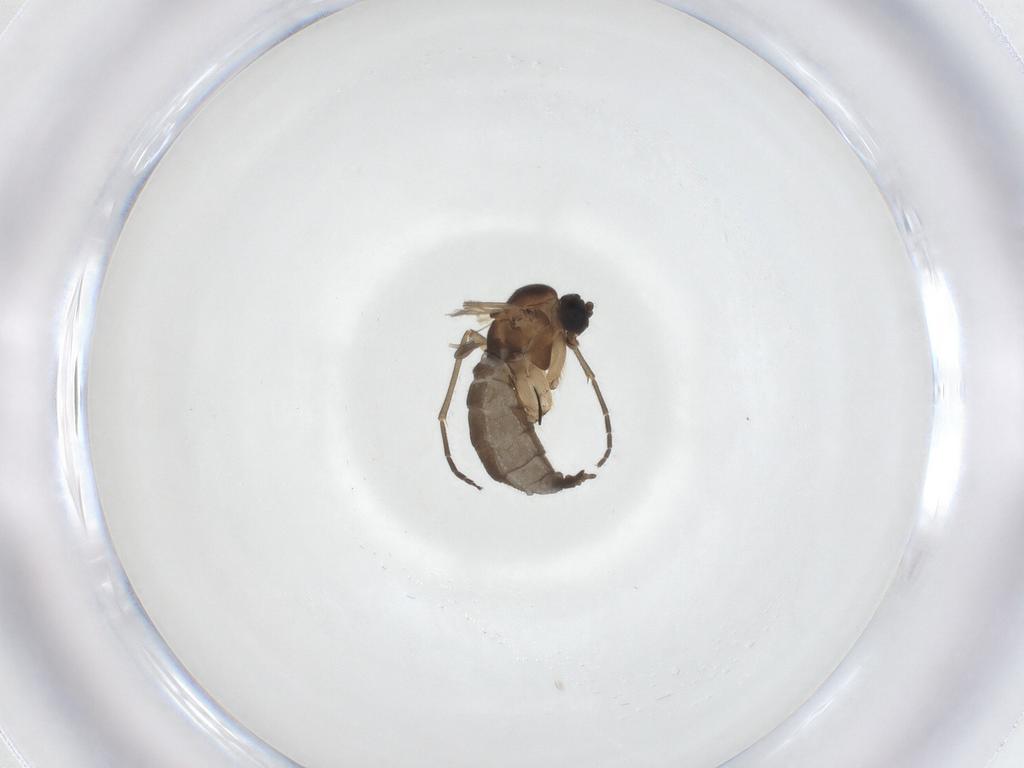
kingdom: Animalia
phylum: Arthropoda
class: Insecta
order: Diptera
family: Sciaridae
